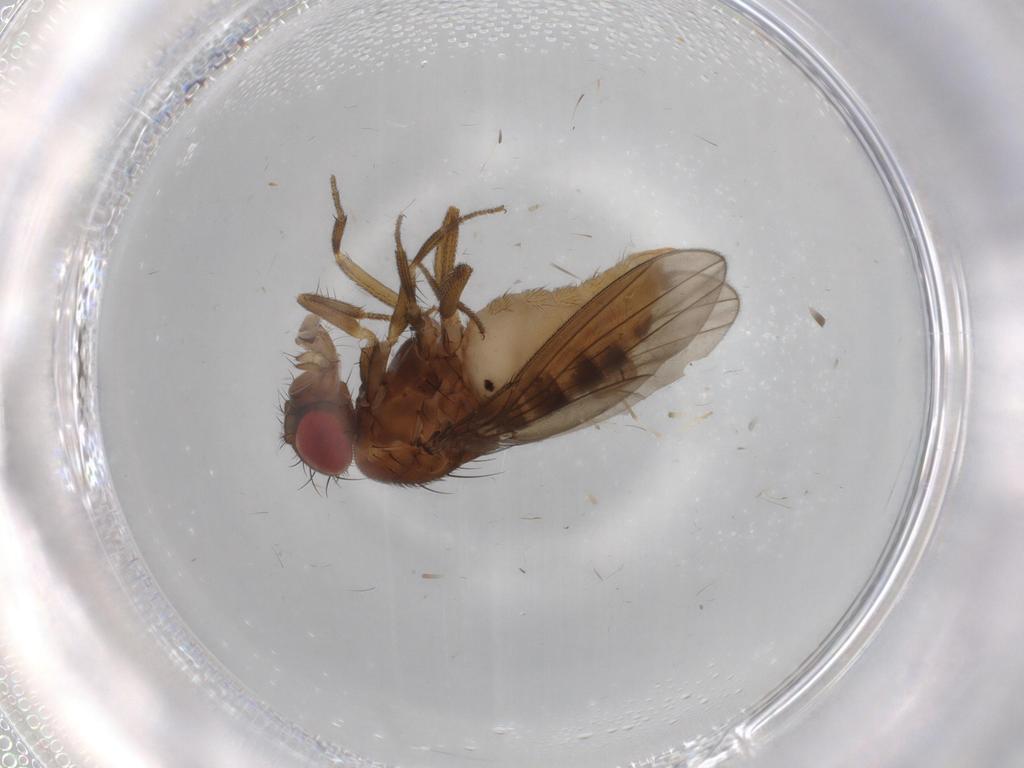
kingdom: Animalia
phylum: Arthropoda
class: Insecta
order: Diptera
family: Drosophilidae
